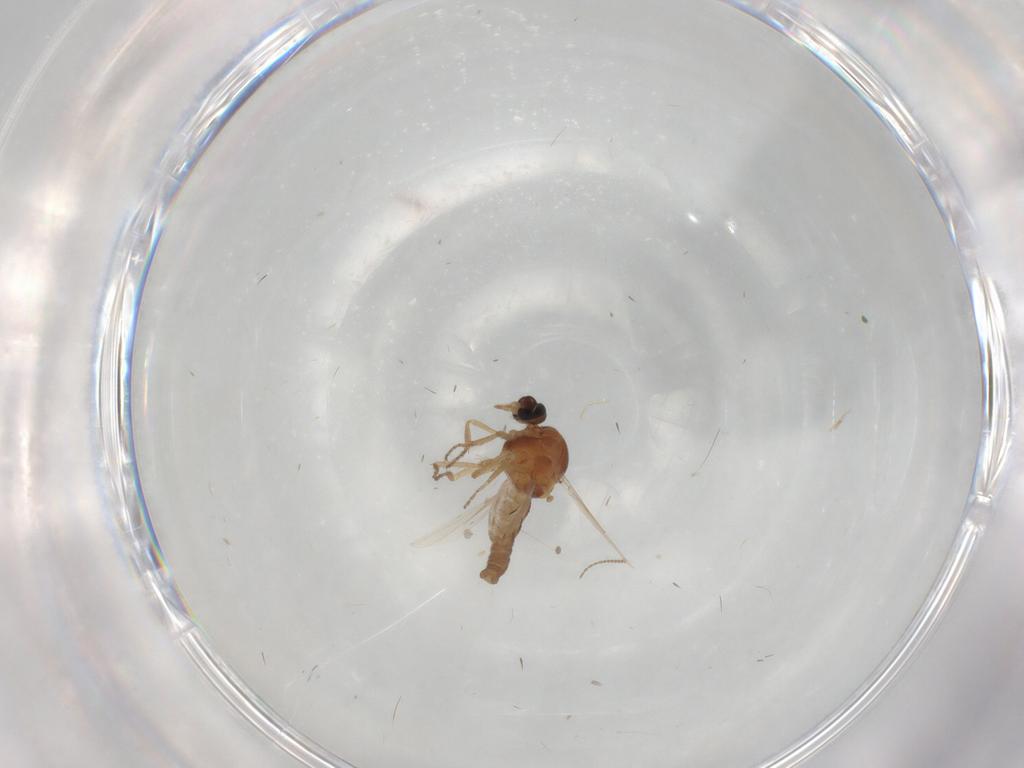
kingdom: Animalia
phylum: Arthropoda
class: Insecta
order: Diptera
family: Ceratopogonidae
